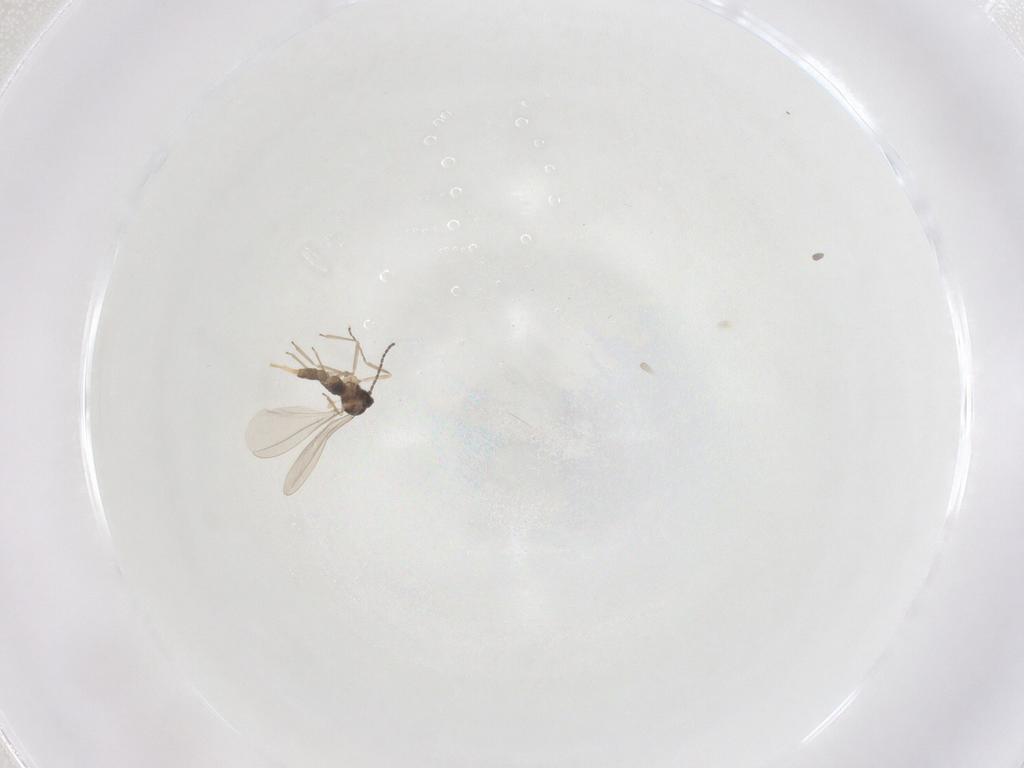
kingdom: Animalia
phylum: Arthropoda
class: Insecta
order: Diptera
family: Cecidomyiidae
